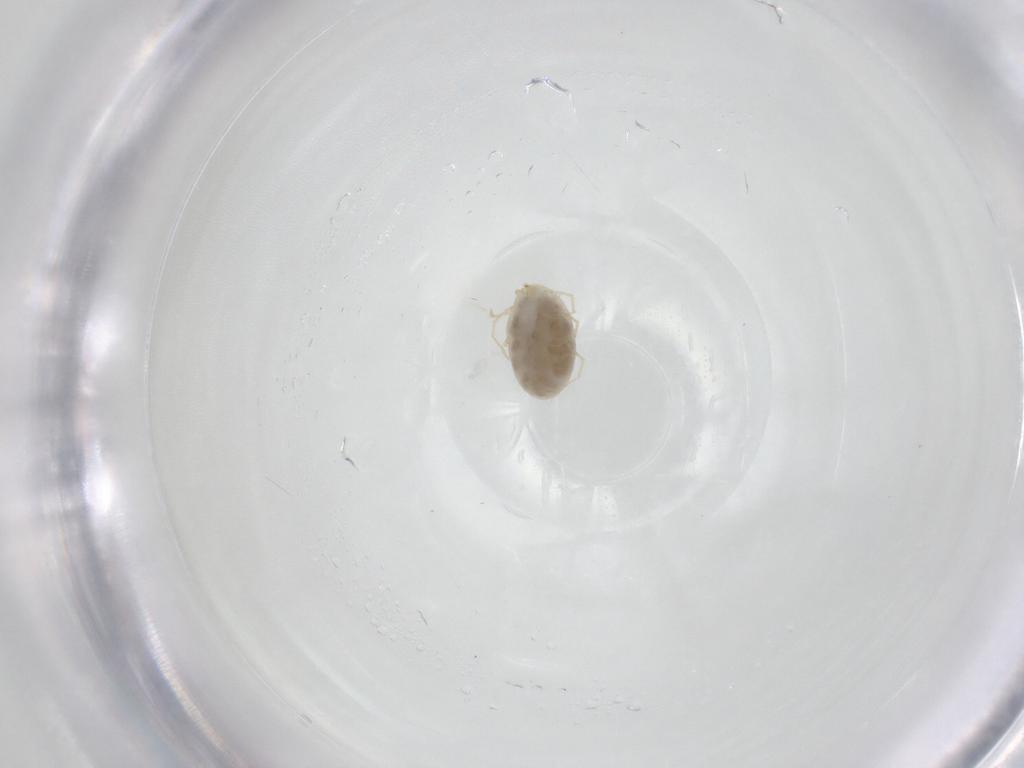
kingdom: Animalia
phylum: Arthropoda
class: Arachnida
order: Trombidiformes
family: Erythraeidae
